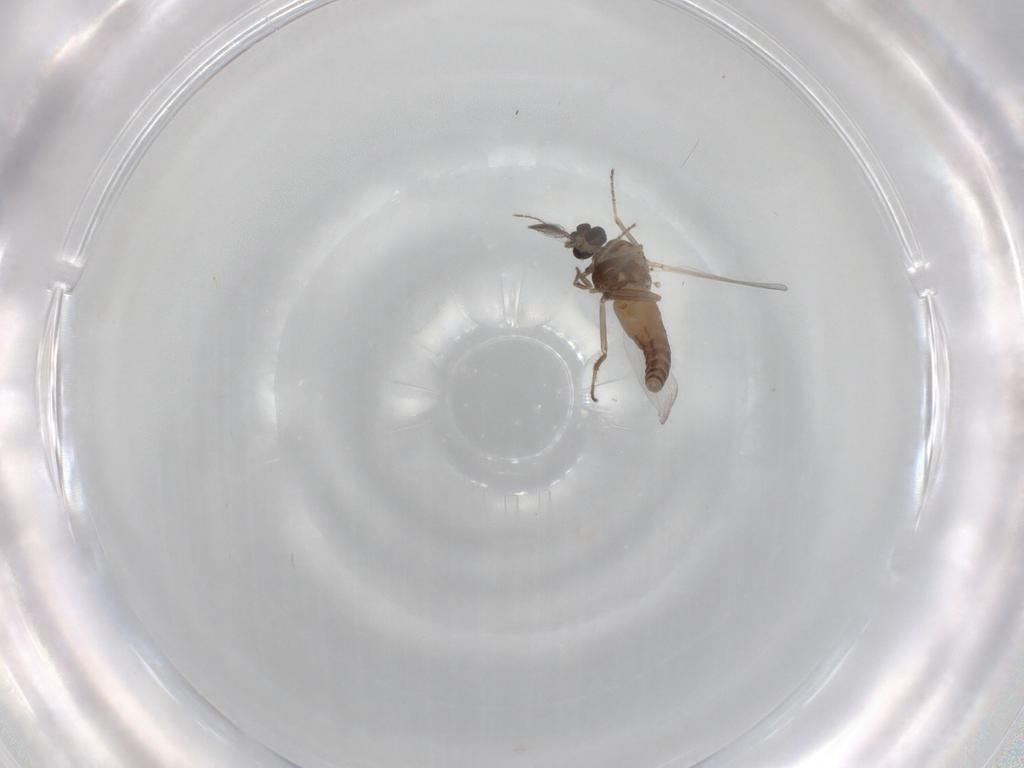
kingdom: Animalia
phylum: Arthropoda
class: Insecta
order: Diptera
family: Ceratopogonidae
